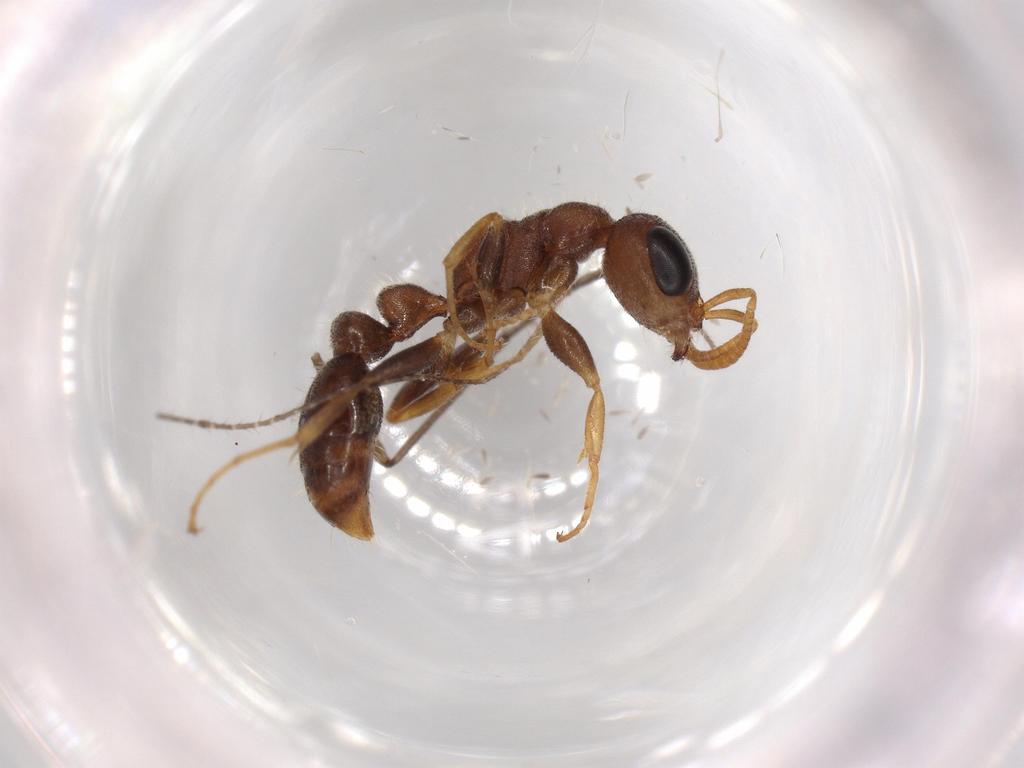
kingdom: Animalia
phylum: Arthropoda
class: Insecta
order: Hymenoptera
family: Formicidae
